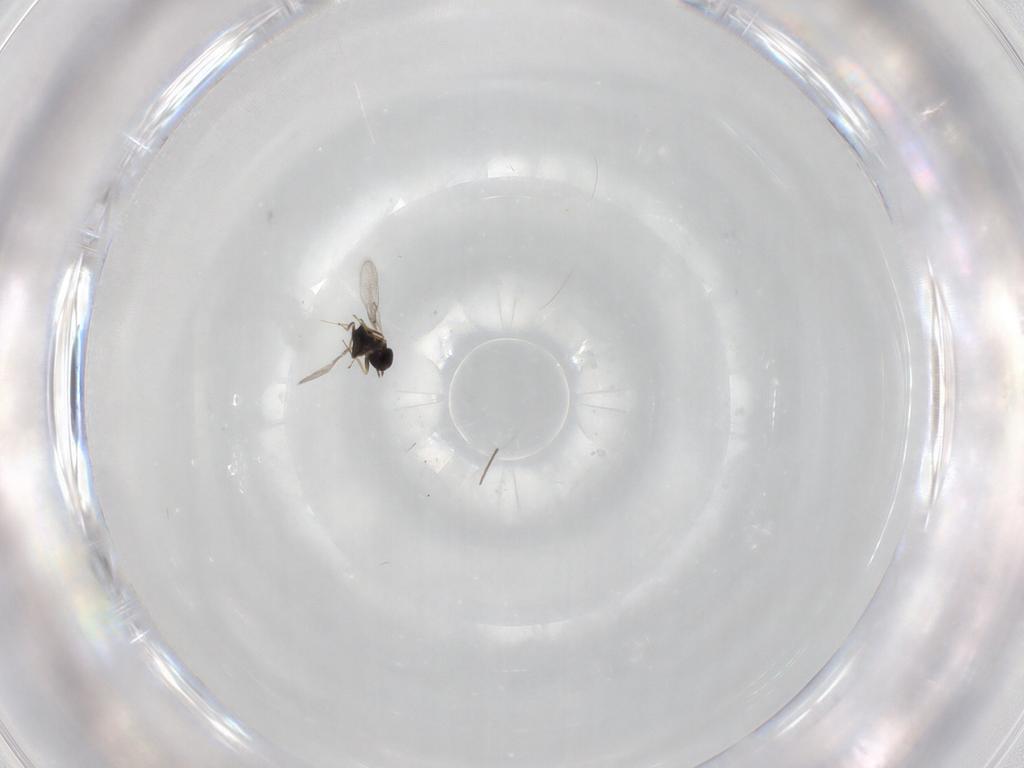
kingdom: Animalia
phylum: Arthropoda
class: Insecta
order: Hymenoptera
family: Trichogrammatidae
